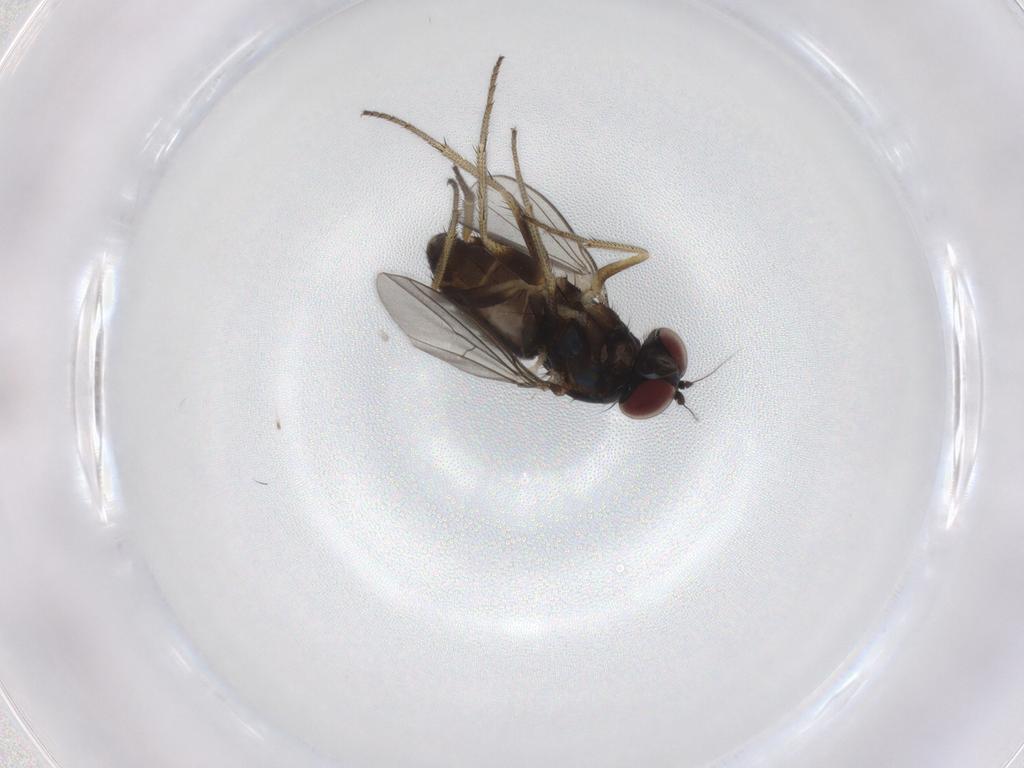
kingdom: Animalia
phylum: Arthropoda
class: Insecta
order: Diptera
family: Phoridae
